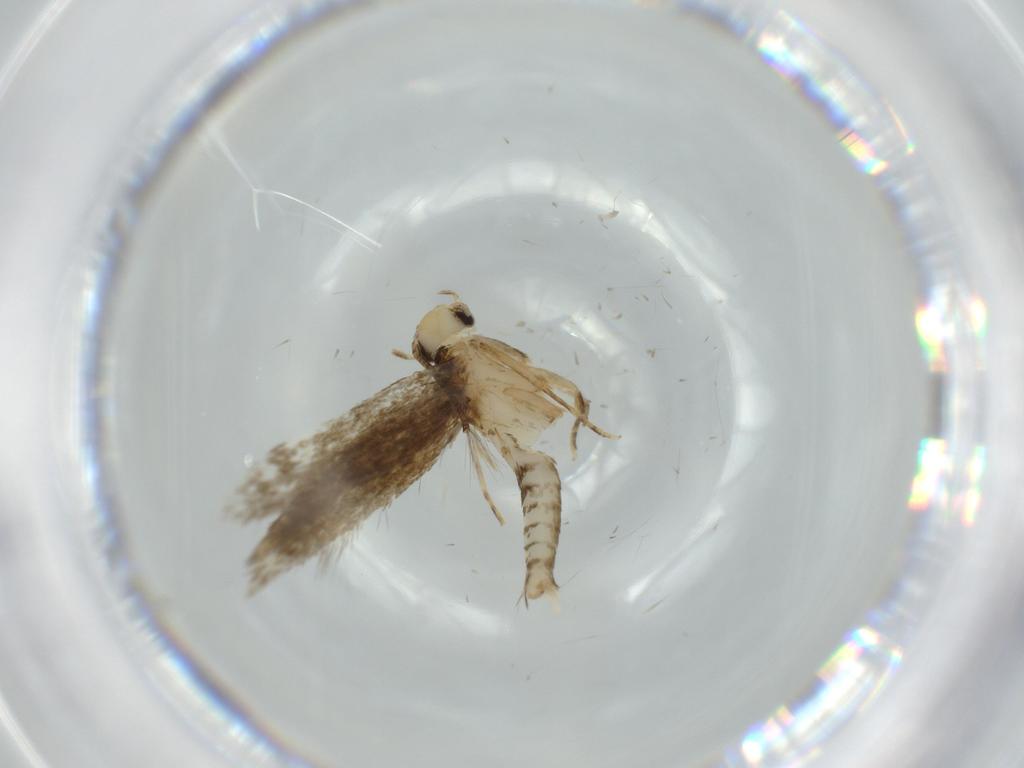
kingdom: Animalia
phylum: Arthropoda
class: Insecta
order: Lepidoptera
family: Tineidae
